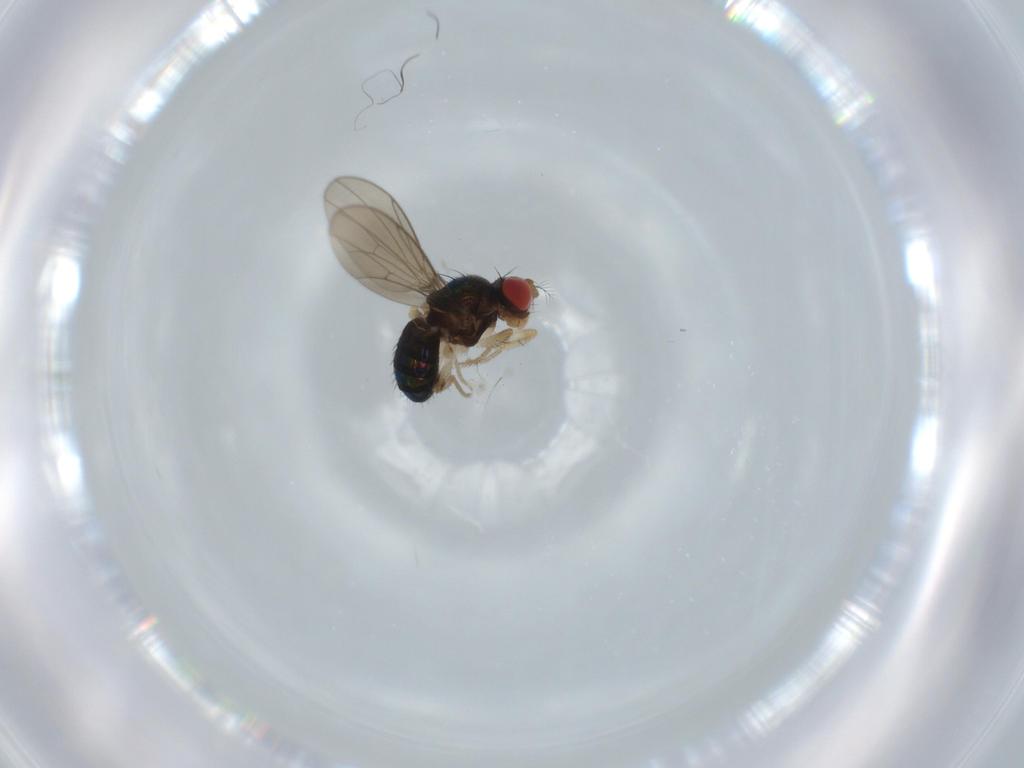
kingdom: Animalia
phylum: Arthropoda
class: Insecta
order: Diptera
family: Drosophilidae
